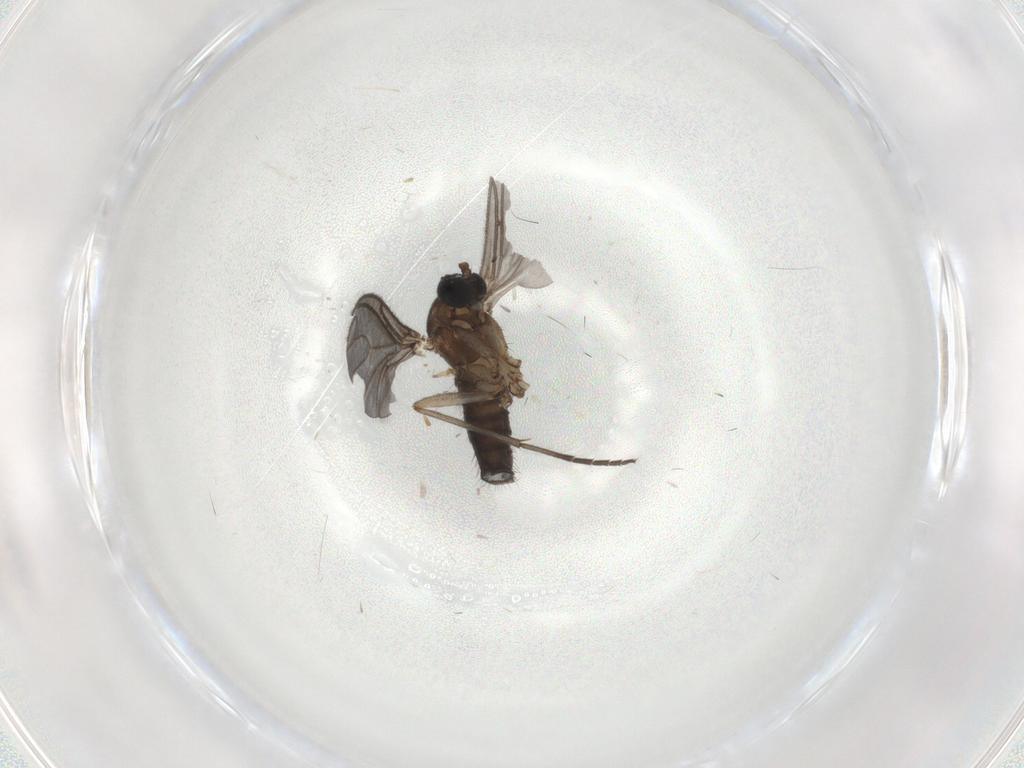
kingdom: Animalia
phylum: Arthropoda
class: Insecta
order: Diptera
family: Sciaridae
